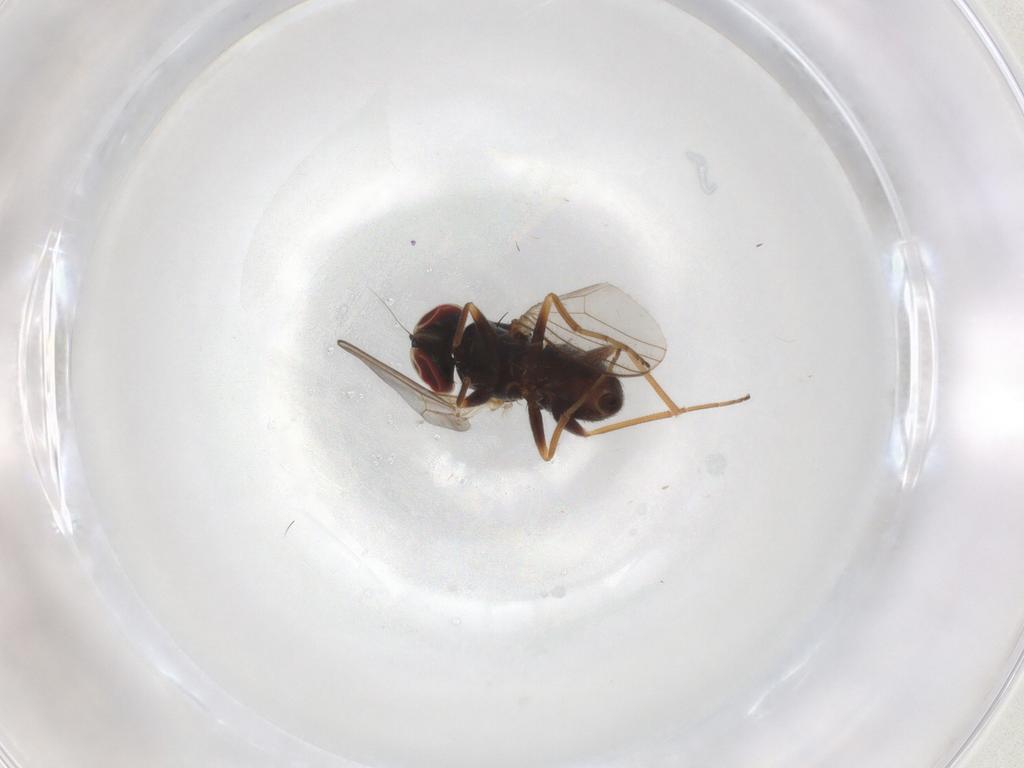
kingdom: Animalia
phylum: Arthropoda
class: Insecta
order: Diptera
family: Dolichopodidae
